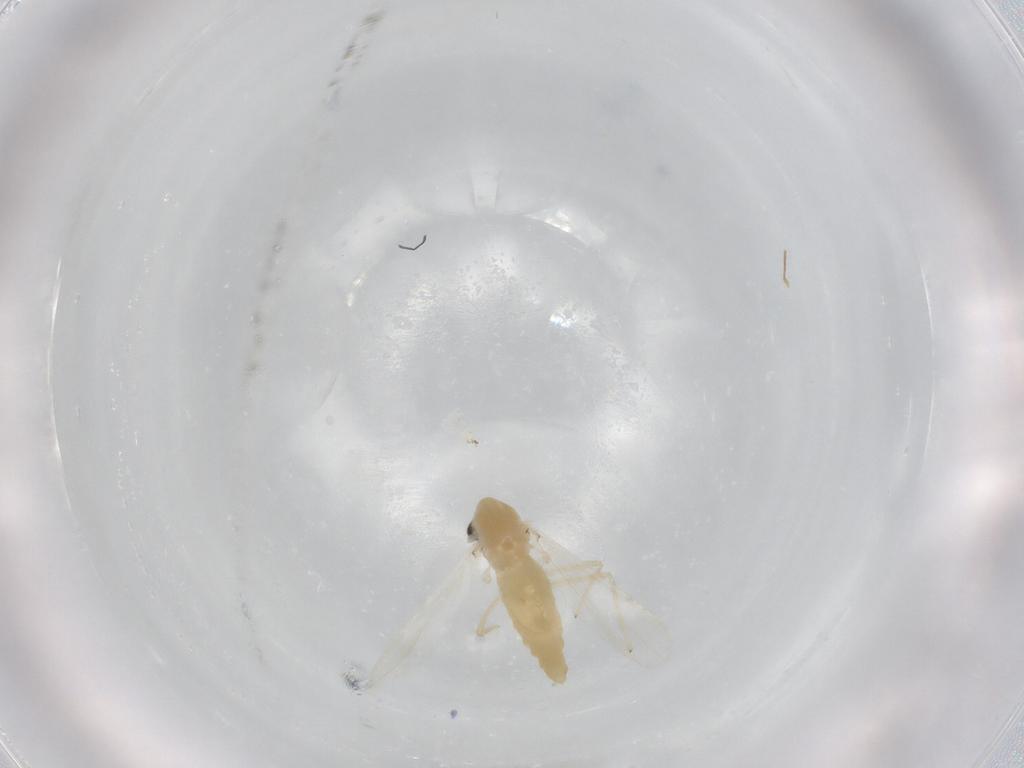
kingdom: Animalia
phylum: Arthropoda
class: Insecta
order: Diptera
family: Chironomidae
